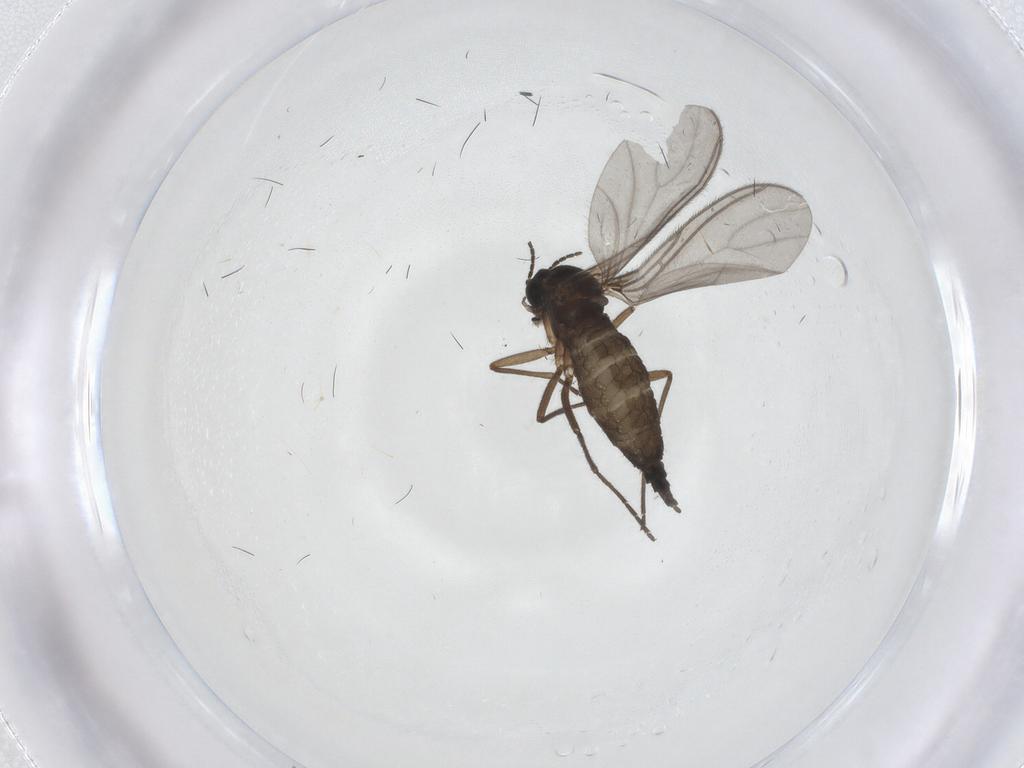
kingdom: Animalia
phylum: Arthropoda
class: Insecta
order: Diptera
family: Sciaridae
